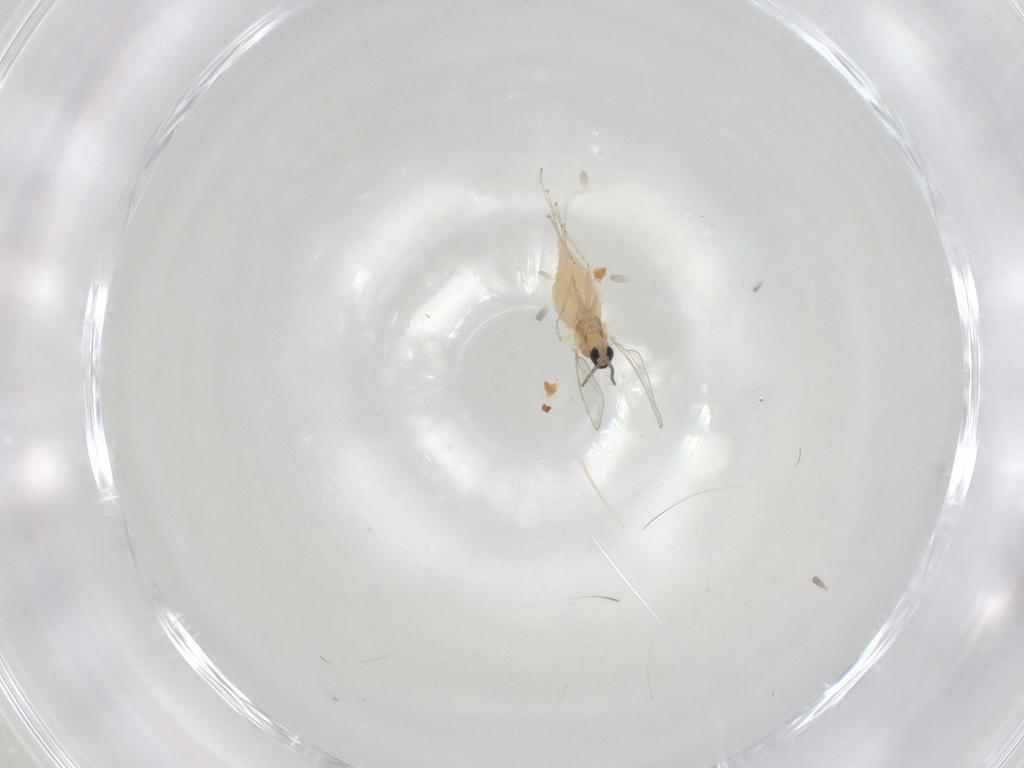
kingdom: Animalia
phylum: Arthropoda
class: Insecta
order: Diptera
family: Cecidomyiidae
